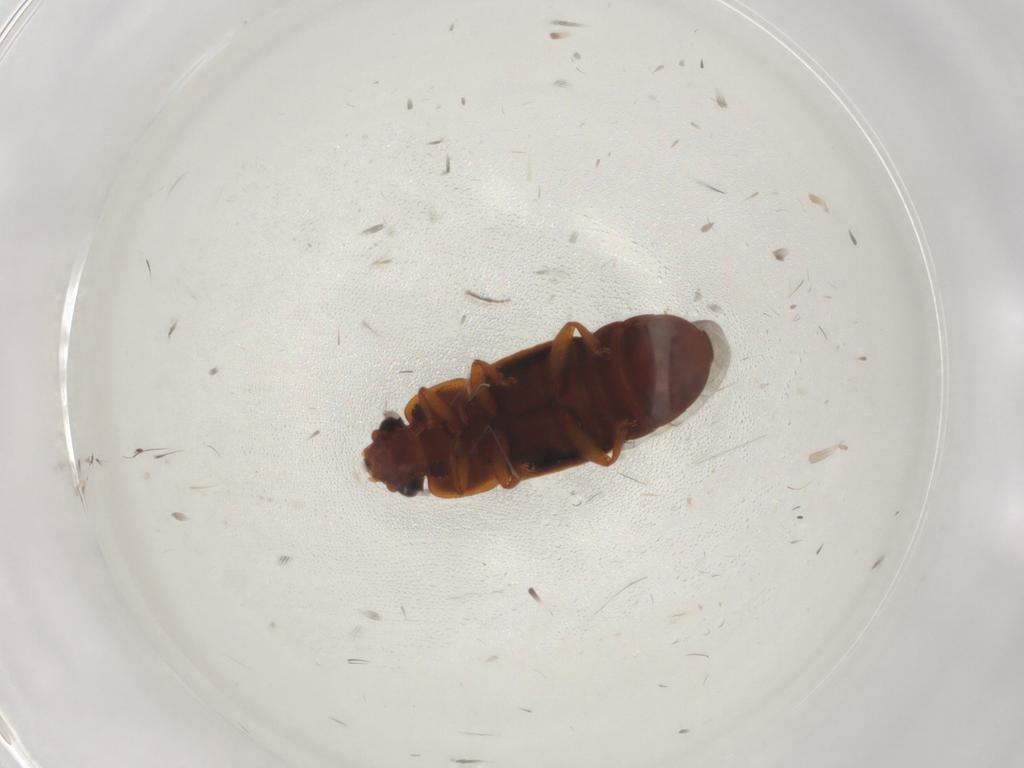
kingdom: Animalia
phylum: Arthropoda
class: Insecta
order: Coleoptera
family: Nitidulidae
